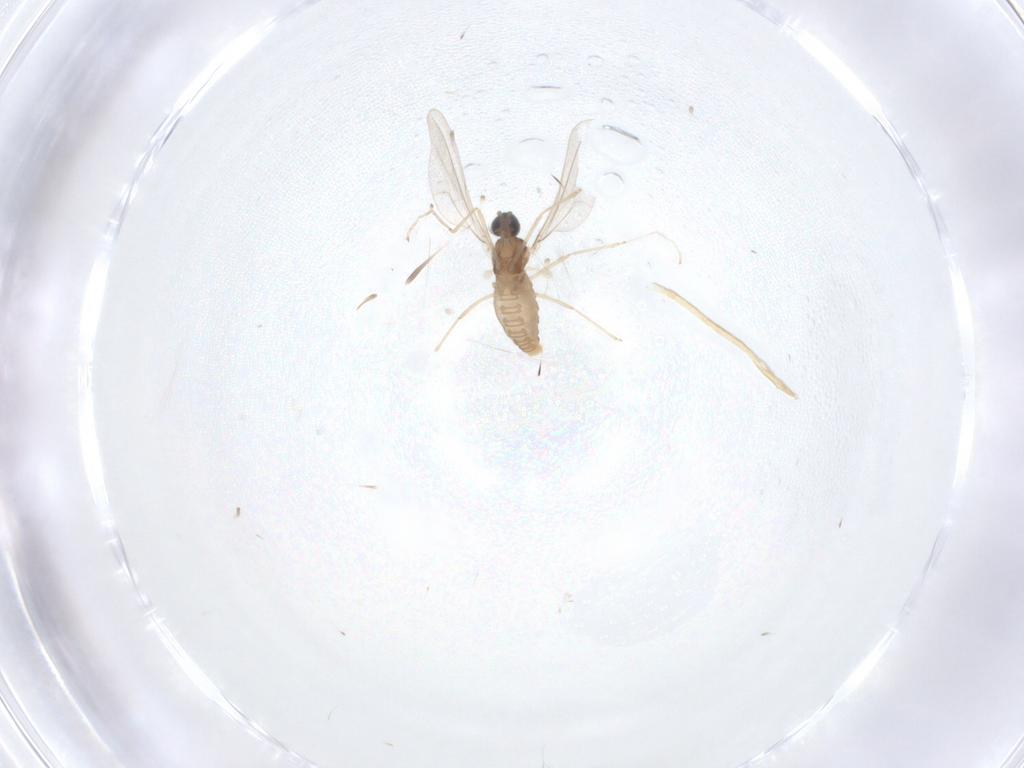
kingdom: Animalia
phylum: Arthropoda
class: Insecta
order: Diptera
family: Cecidomyiidae
